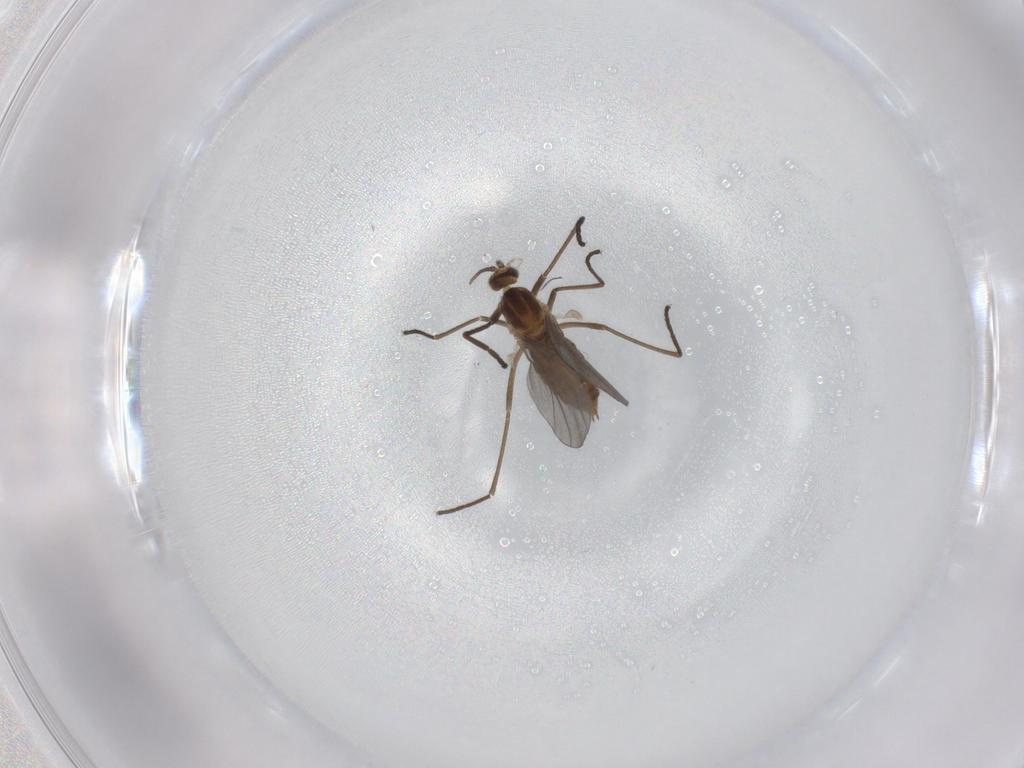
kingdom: Animalia
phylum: Arthropoda
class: Insecta
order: Diptera
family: Cecidomyiidae
